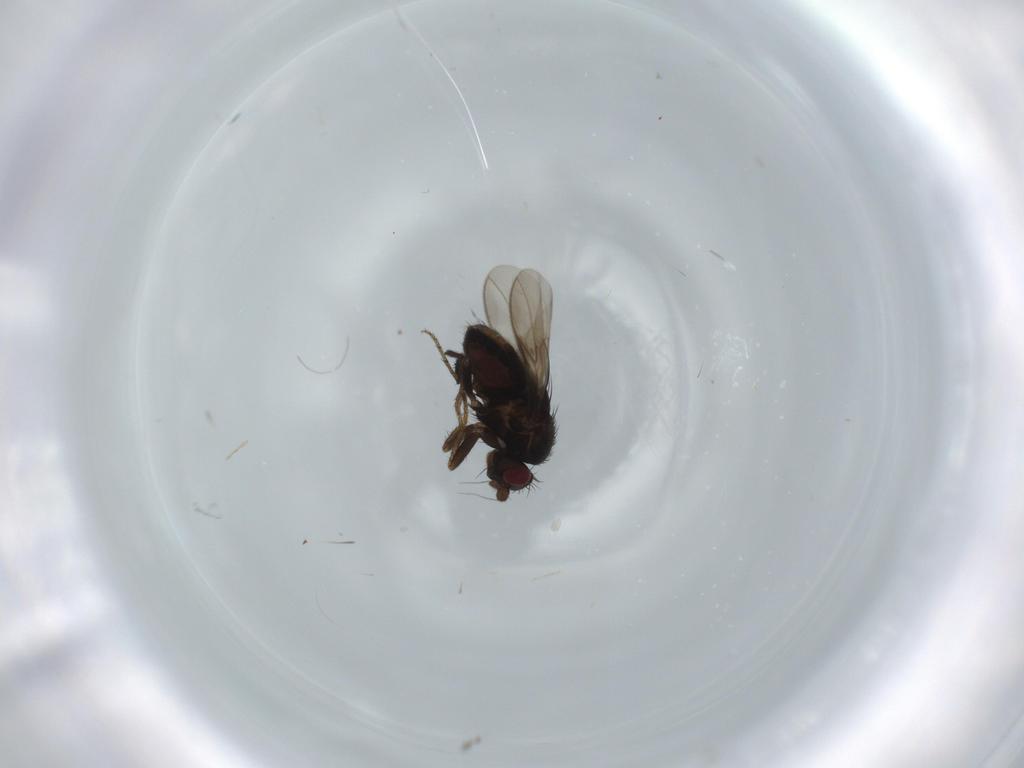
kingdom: Animalia
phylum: Arthropoda
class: Insecta
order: Diptera
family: Sphaeroceridae
